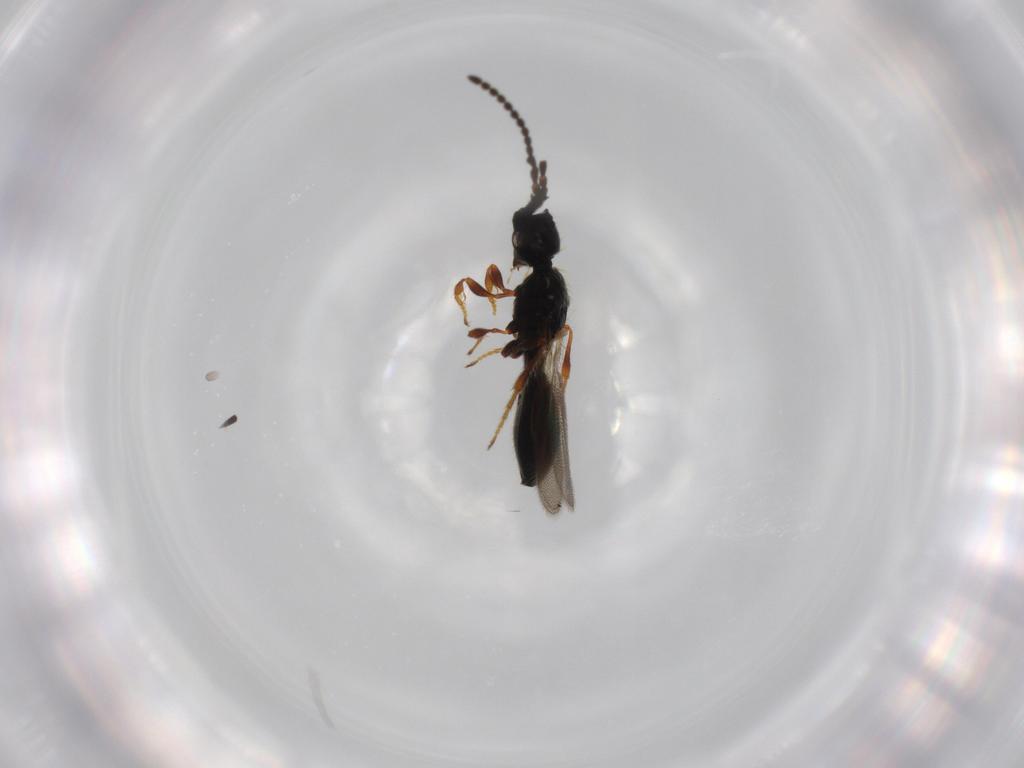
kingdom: Animalia
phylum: Arthropoda
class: Insecta
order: Hymenoptera
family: Diapriidae
